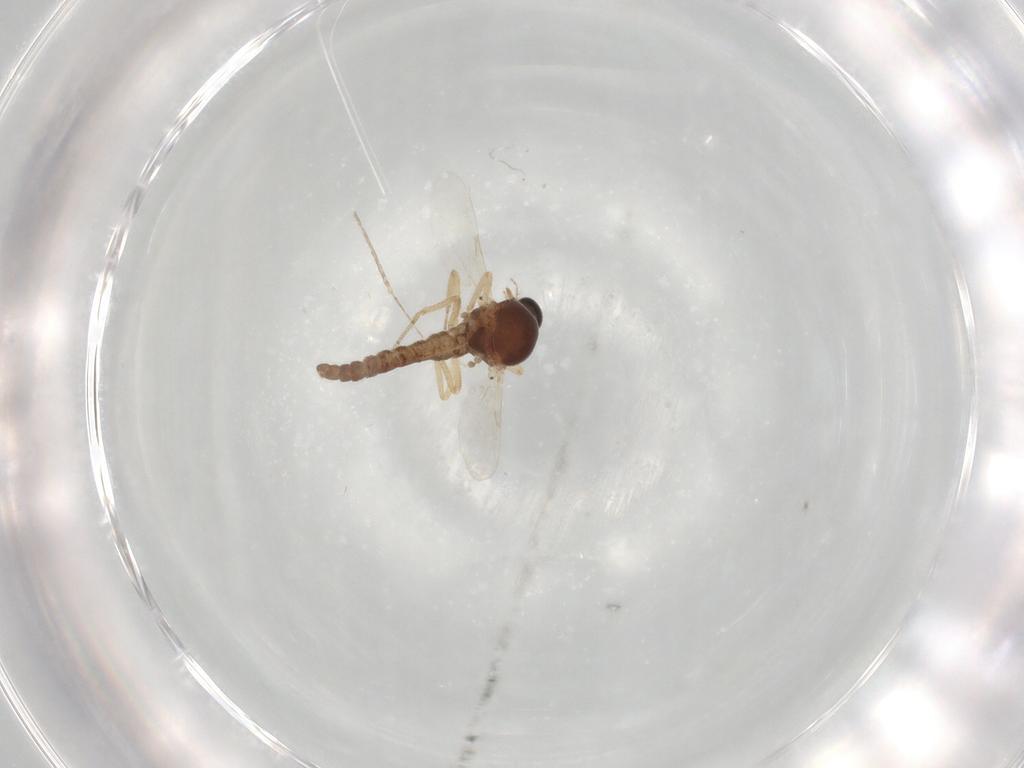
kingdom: Animalia
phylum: Arthropoda
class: Insecta
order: Diptera
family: Ceratopogonidae
